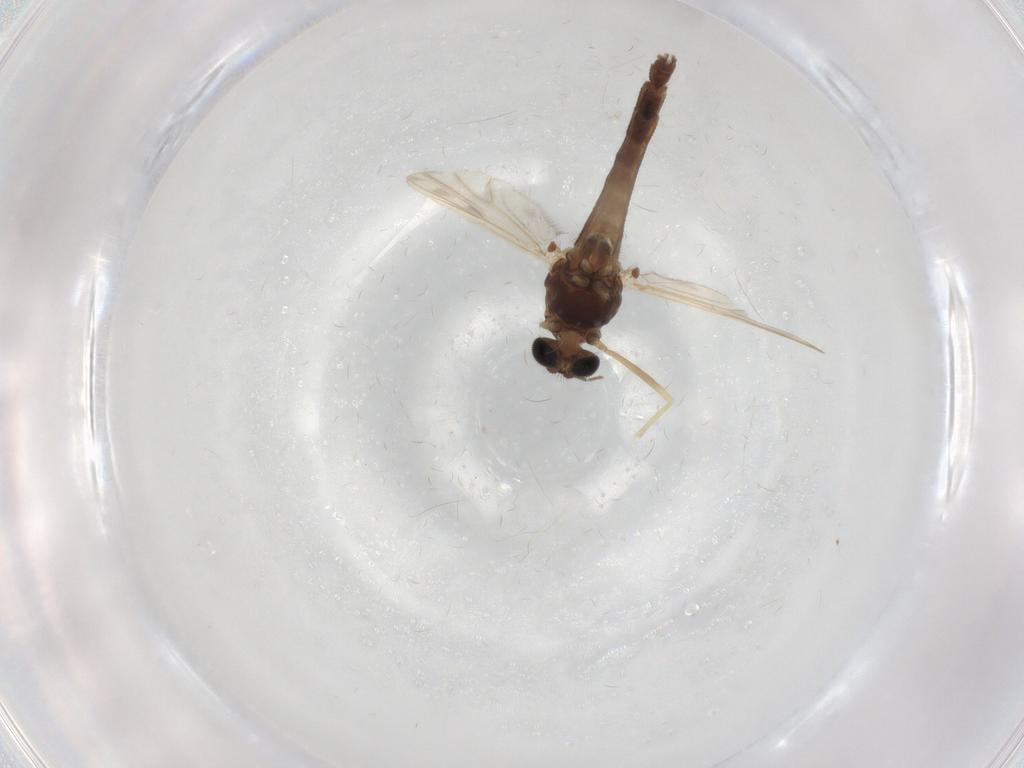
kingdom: Animalia
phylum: Arthropoda
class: Insecta
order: Diptera
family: Chironomidae
